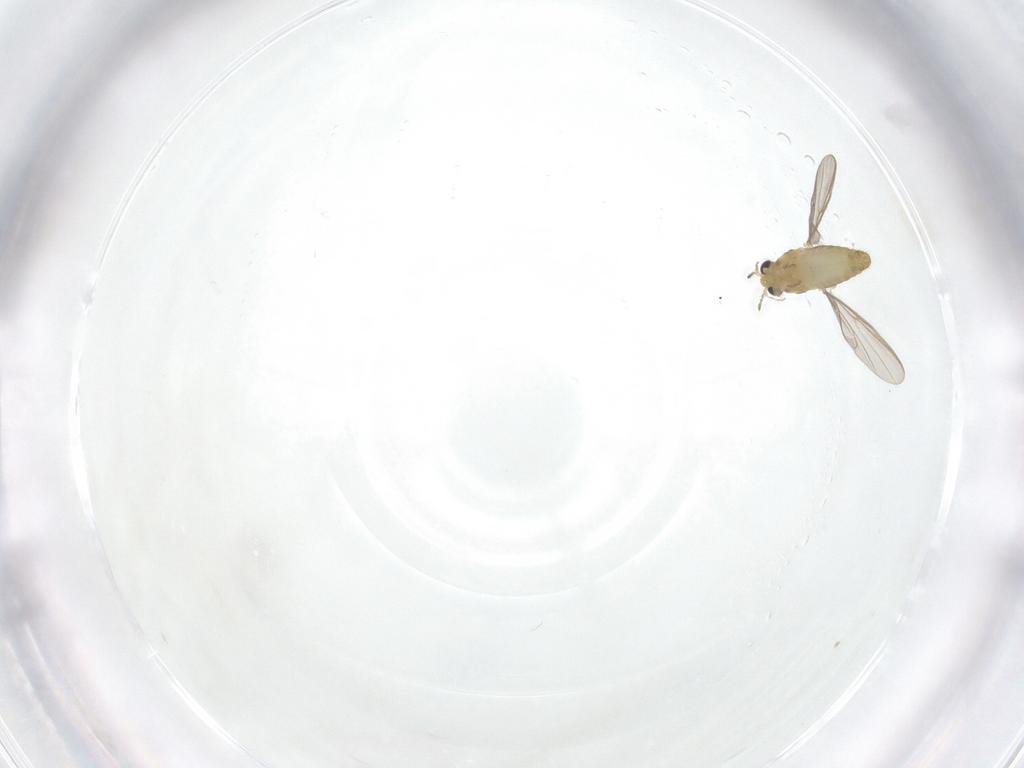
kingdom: Animalia
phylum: Arthropoda
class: Insecta
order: Diptera
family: Chironomidae
